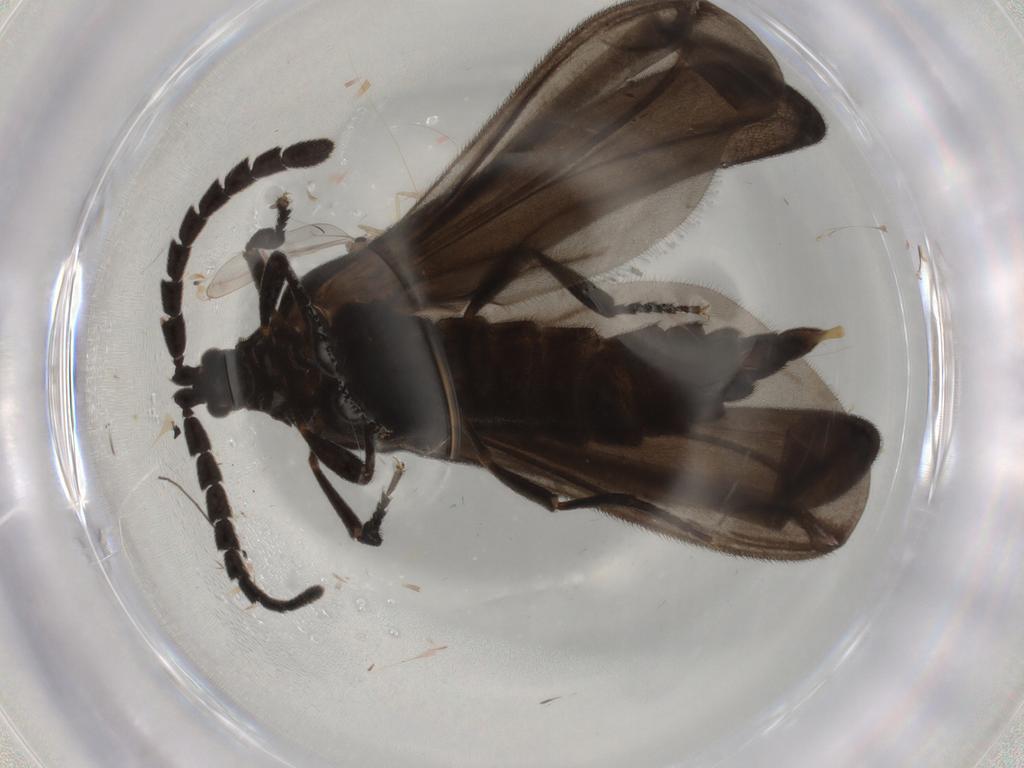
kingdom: Animalia
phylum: Arthropoda
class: Insecta
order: Diptera
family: Cecidomyiidae
